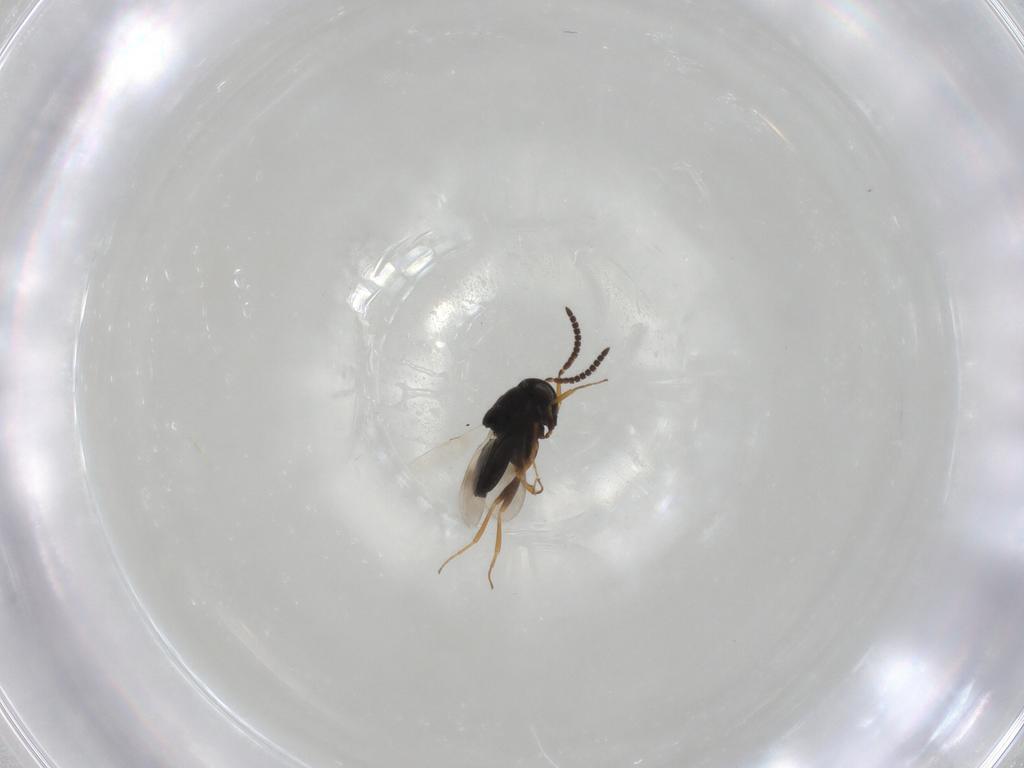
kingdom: Animalia
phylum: Arthropoda
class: Insecta
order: Hymenoptera
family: Scelionidae
